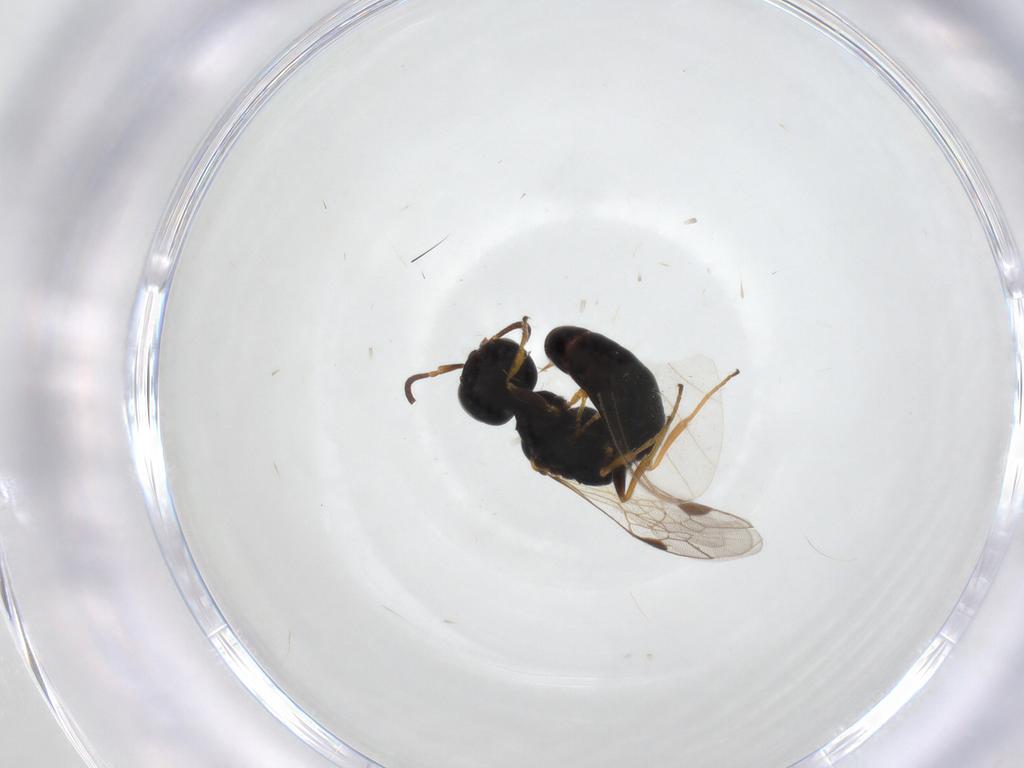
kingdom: Animalia
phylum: Arthropoda
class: Insecta
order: Hymenoptera
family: Pemphredonidae
